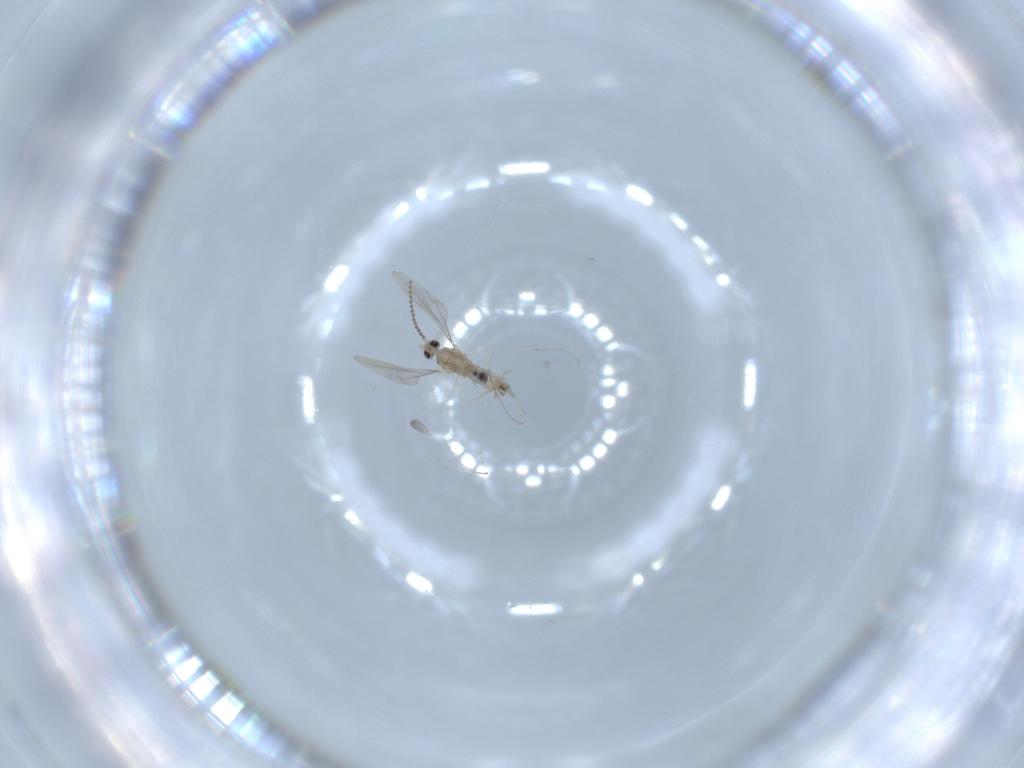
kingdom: Animalia
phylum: Arthropoda
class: Insecta
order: Diptera
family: Cecidomyiidae
